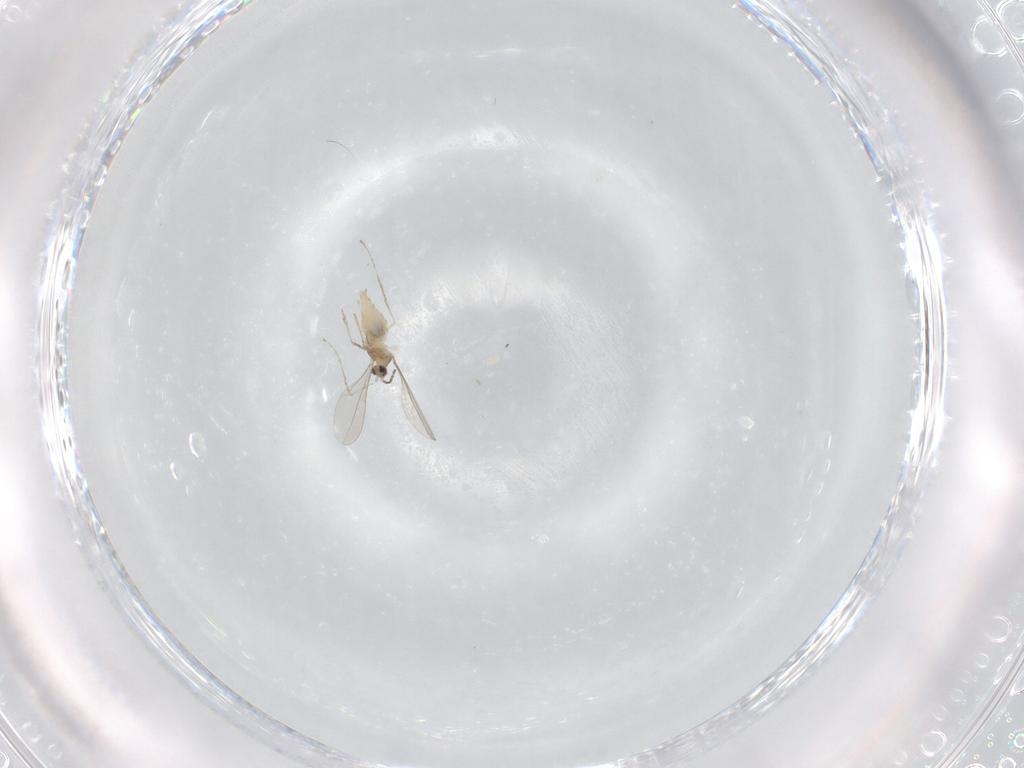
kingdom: Animalia
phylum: Arthropoda
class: Insecta
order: Diptera
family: Cecidomyiidae
